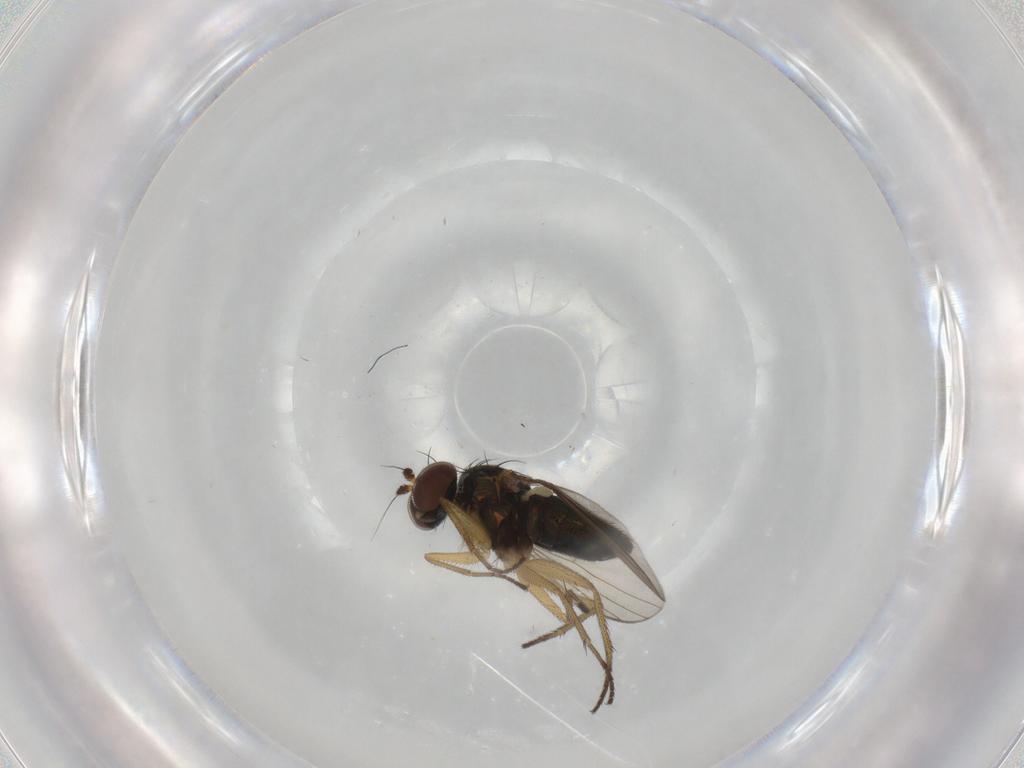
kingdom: Animalia
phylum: Arthropoda
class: Insecta
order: Diptera
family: Dolichopodidae
